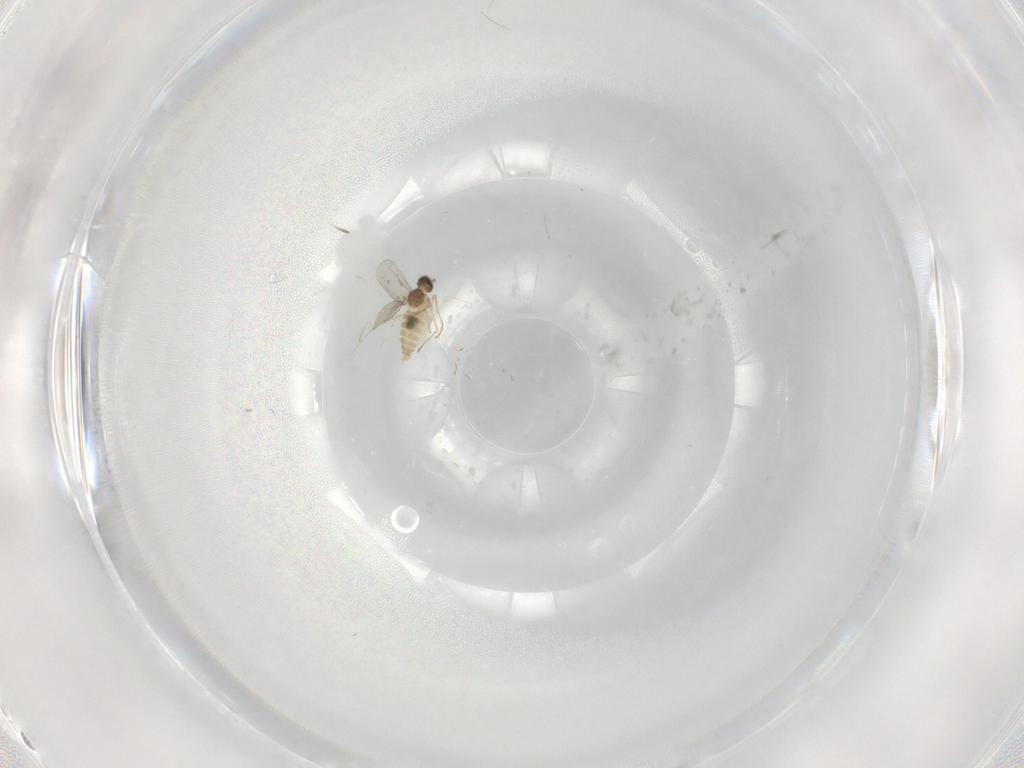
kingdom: Animalia
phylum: Arthropoda
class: Insecta
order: Diptera
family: Cecidomyiidae
